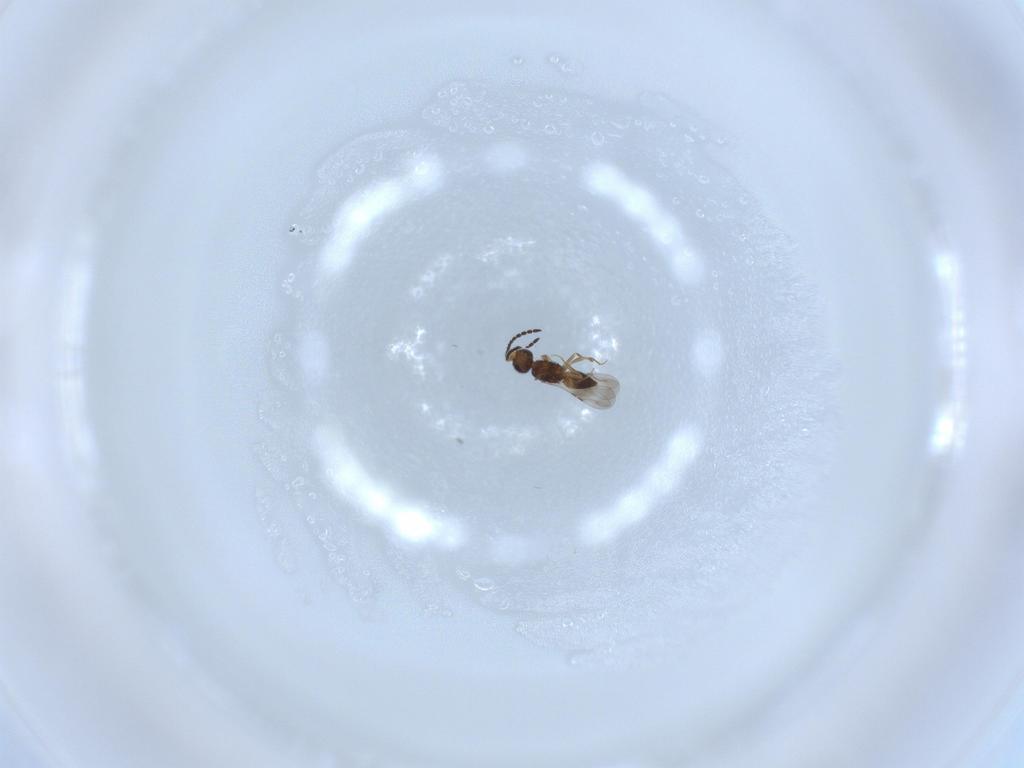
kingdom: Animalia
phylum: Arthropoda
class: Insecta
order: Hymenoptera
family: Ceraphronidae
